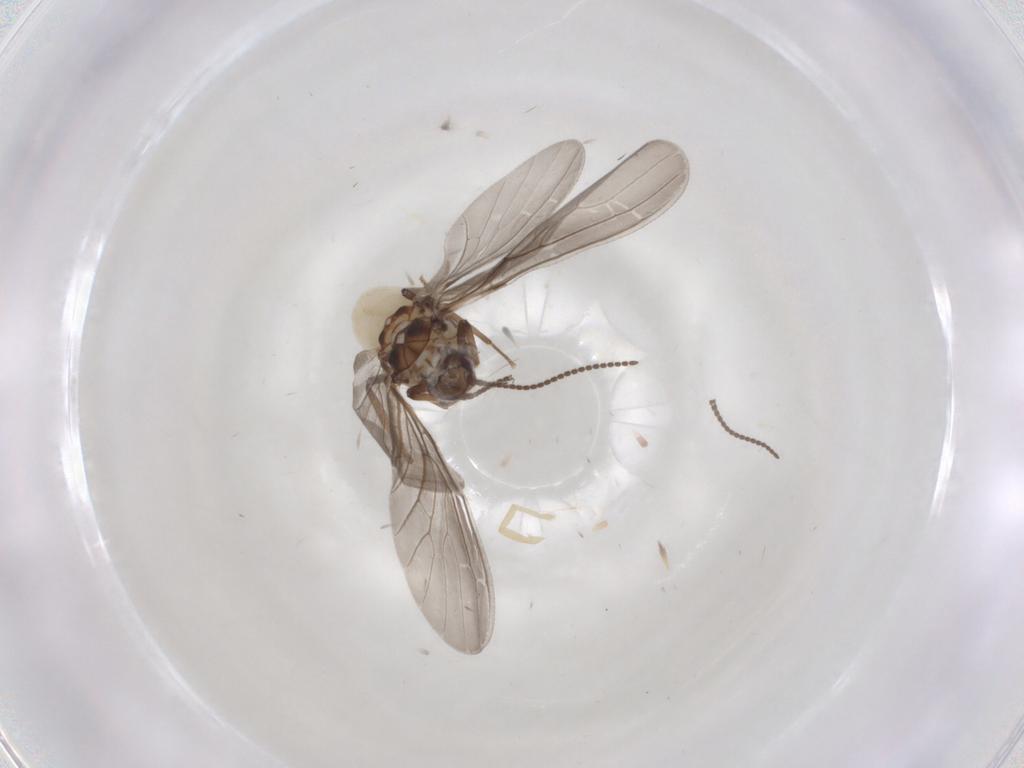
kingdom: Animalia
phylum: Arthropoda
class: Insecta
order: Neuroptera
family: Coniopterygidae
